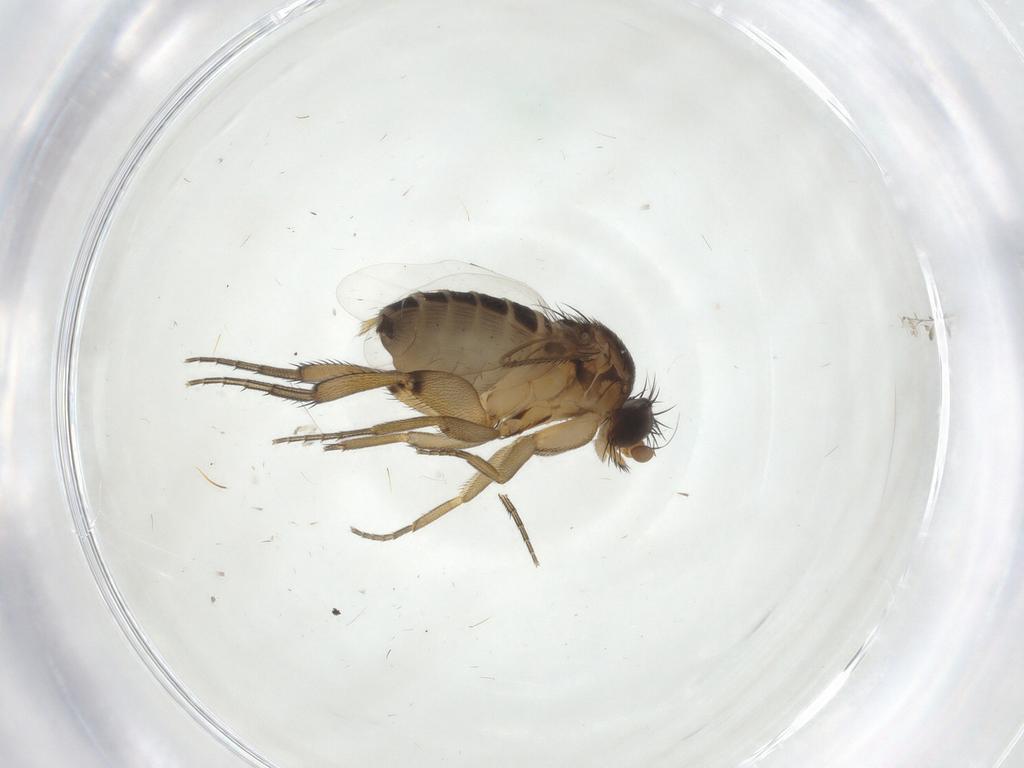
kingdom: Animalia
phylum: Arthropoda
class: Insecta
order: Diptera
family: Phoridae
